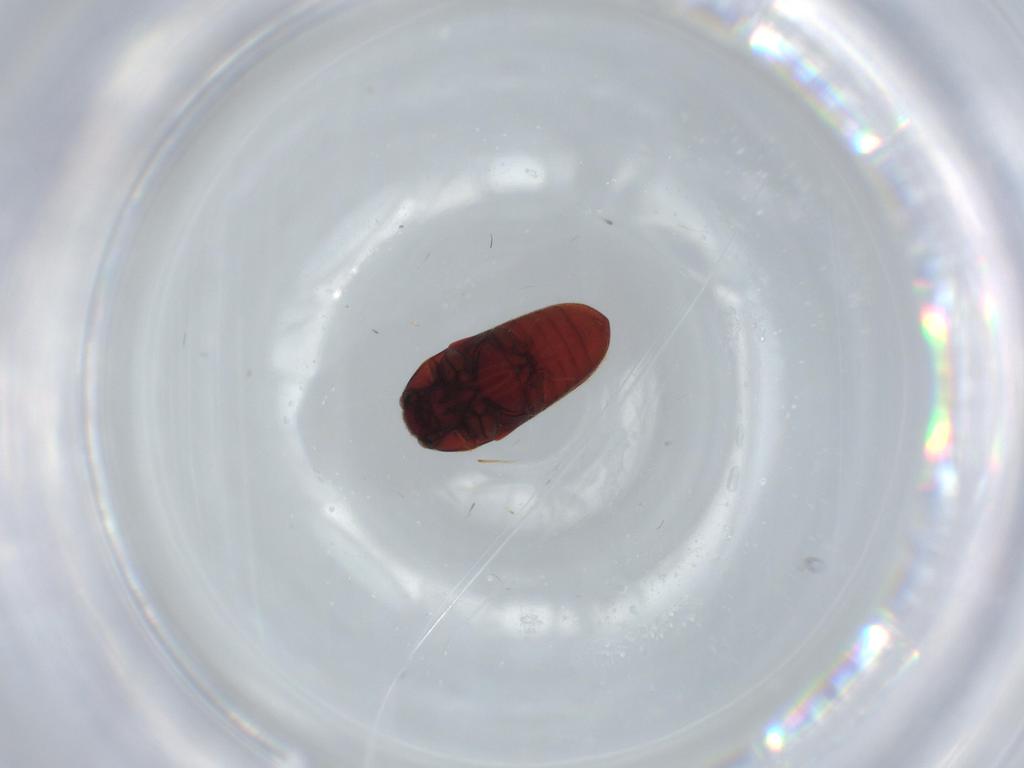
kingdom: Animalia
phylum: Arthropoda
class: Insecta
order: Coleoptera
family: Throscidae
